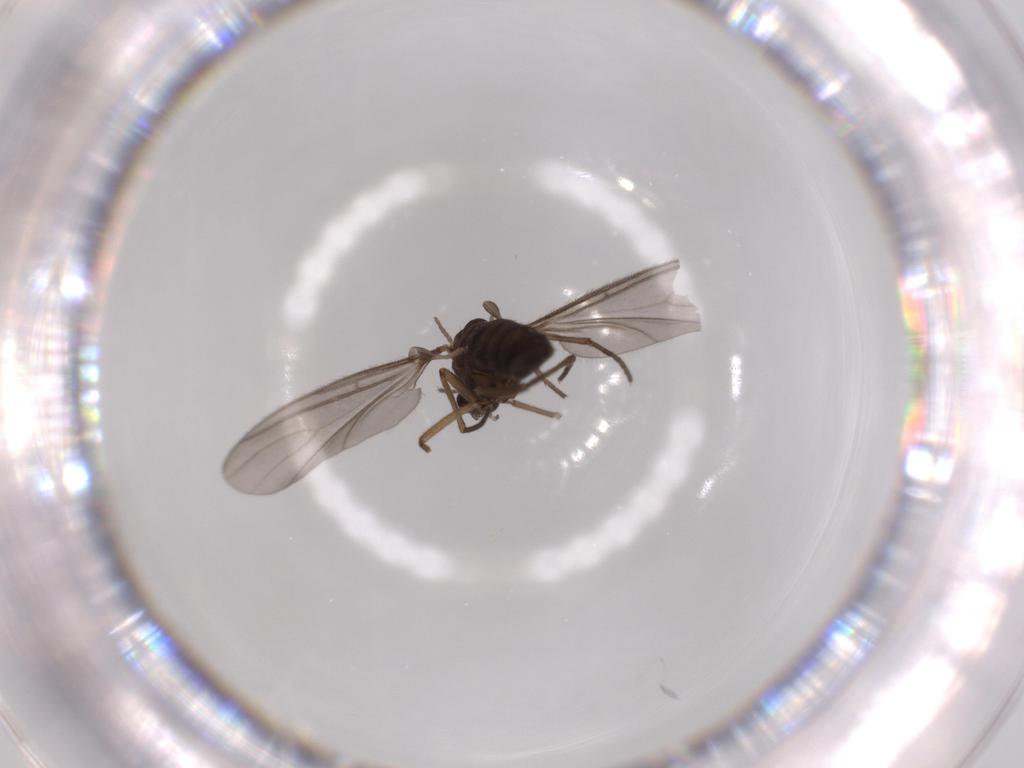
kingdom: Animalia
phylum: Arthropoda
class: Insecta
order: Diptera
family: Sciaridae
